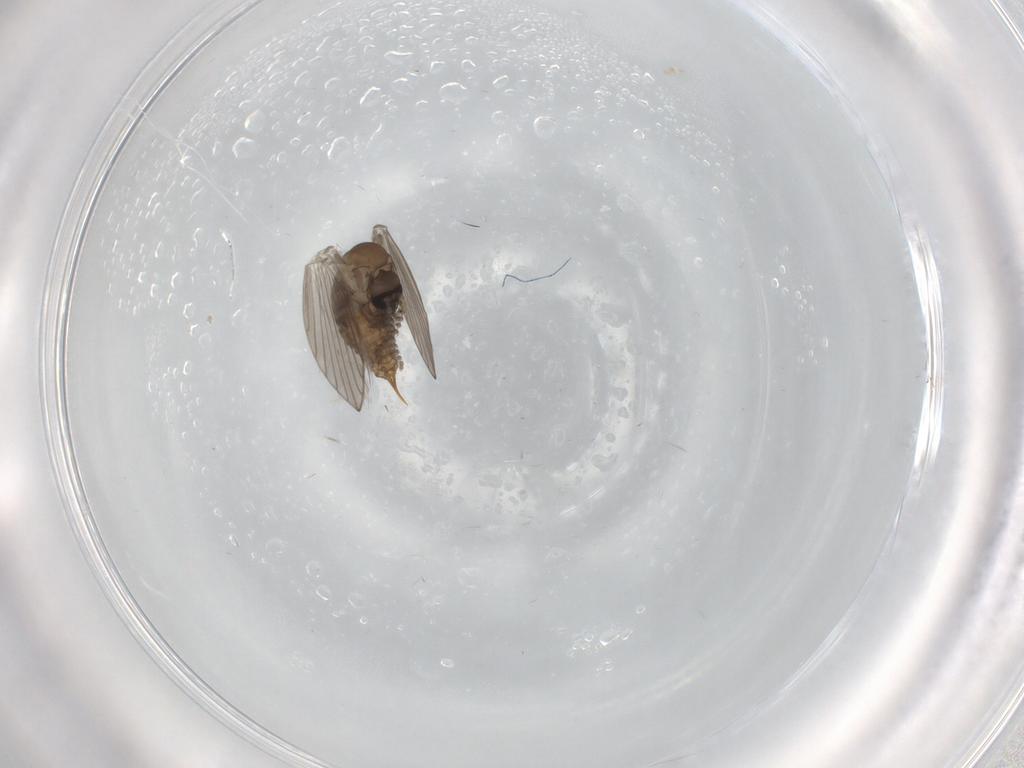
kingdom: Animalia
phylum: Arthropoda
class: Insecta
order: Diptera
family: Psychodidae
